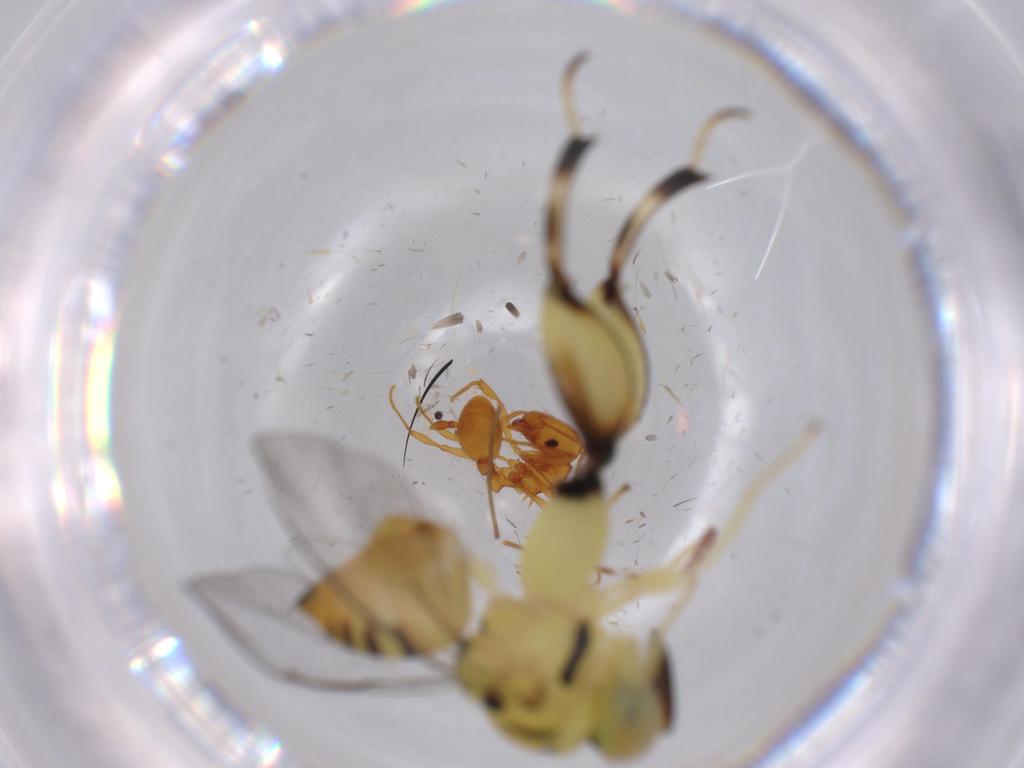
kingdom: Animalia
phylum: Arthropoda
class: Insecta
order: Diptera
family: Cecidomyiidae
